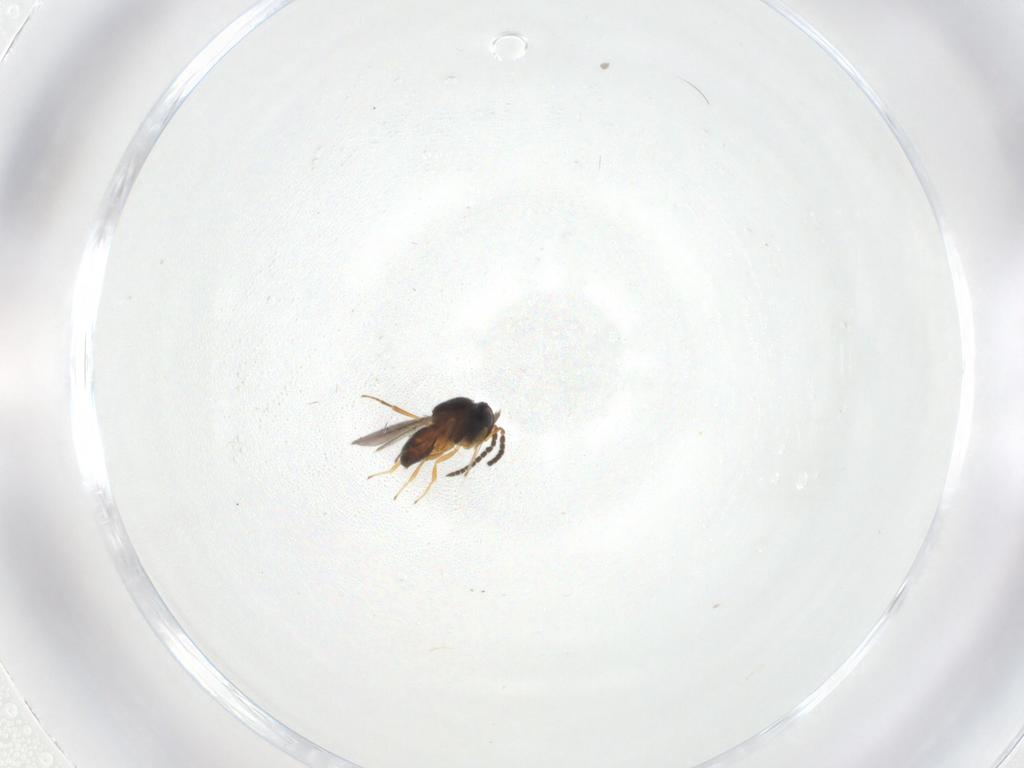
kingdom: Animalia
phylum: Arthropoda
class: Insecta
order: Hymenoptera
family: Scelionidae
